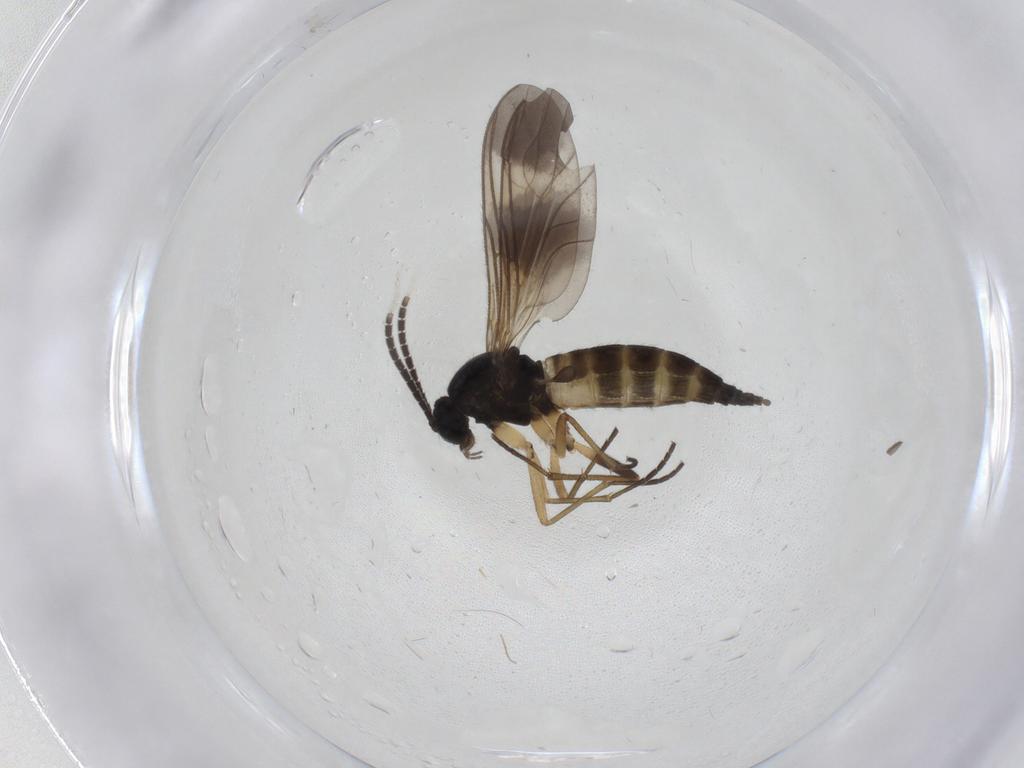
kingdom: Animalia
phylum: Arthropoda
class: Insecta
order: Diptera
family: Sciaridae
